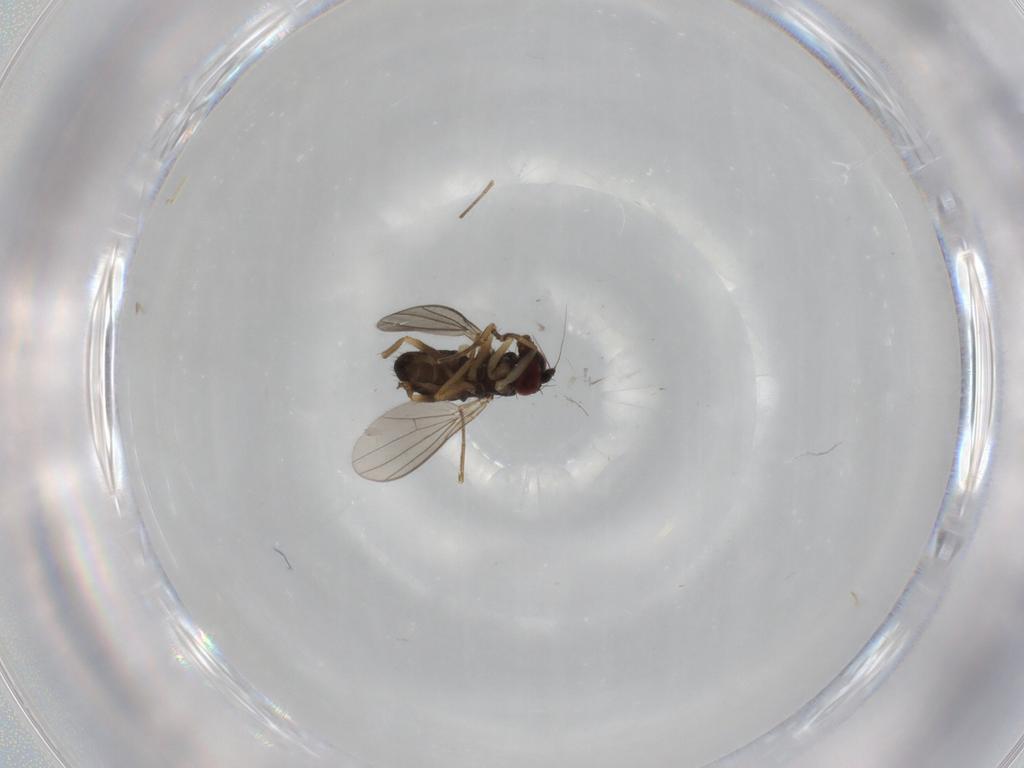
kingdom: Animalia
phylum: Arthropoda
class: Insecta
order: Diptera
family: Dolichopodidae
